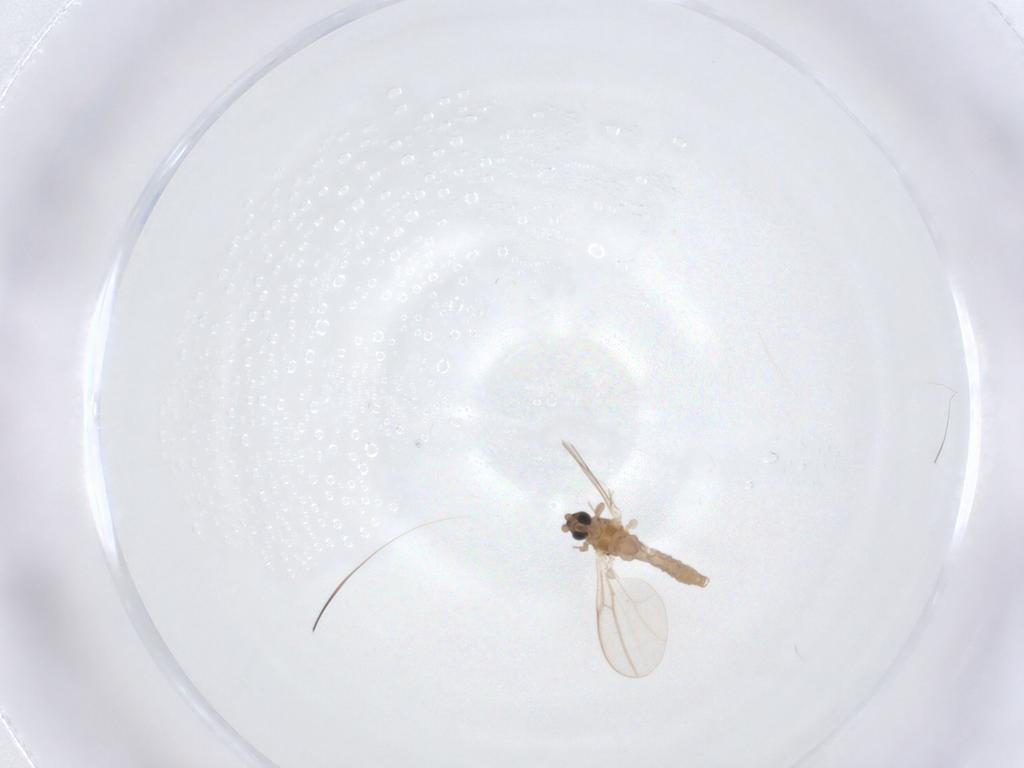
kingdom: Animalia
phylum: Arthropoda
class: Insecta
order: Diptera
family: Cecidomyiidae
